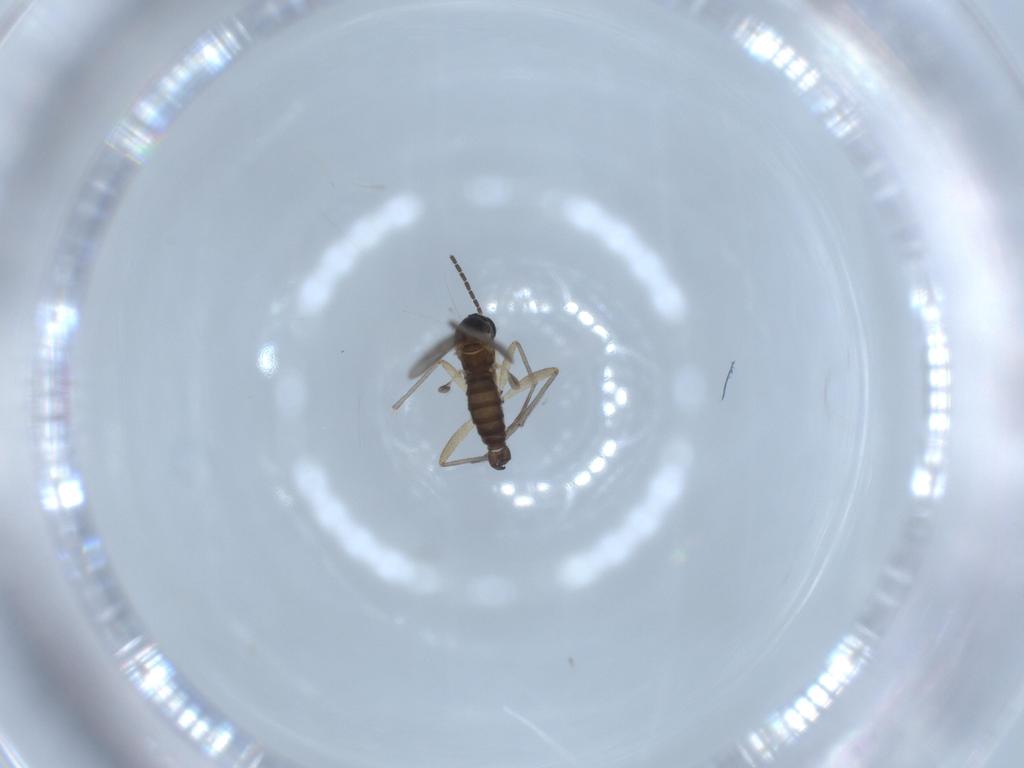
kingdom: Animalia
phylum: Arthropoda
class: Insecta
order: Diptera
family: Sciaridae
